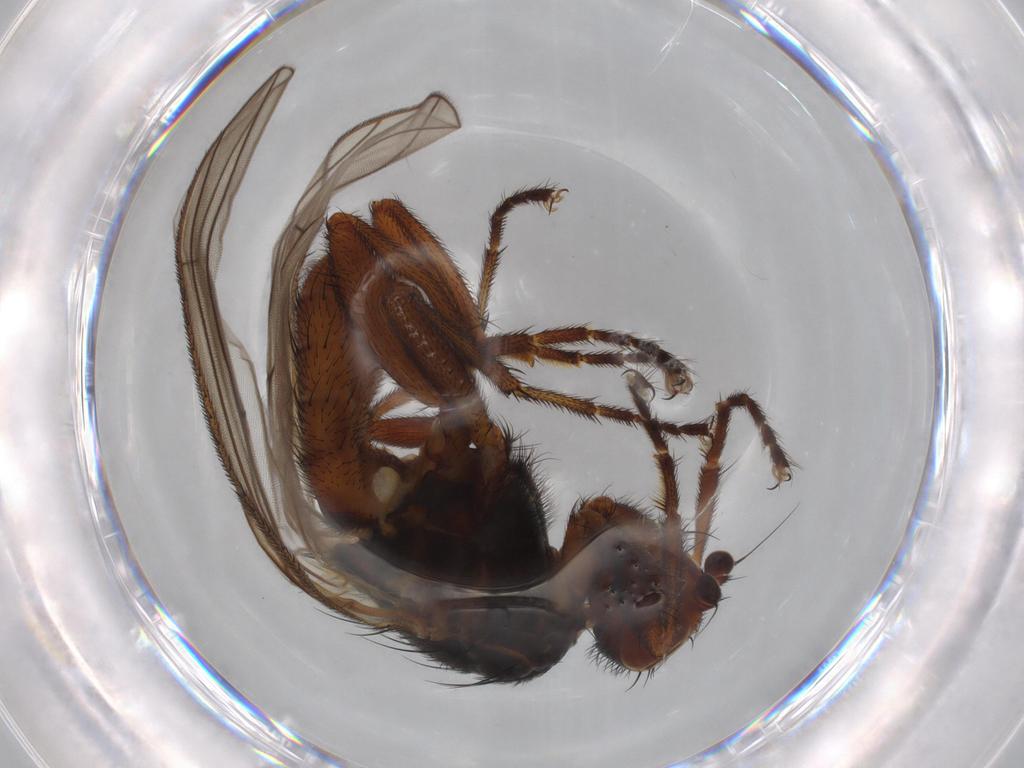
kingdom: Animalia
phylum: Arthropoda
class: Insecta
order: Diptera
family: Heleomyzidae
